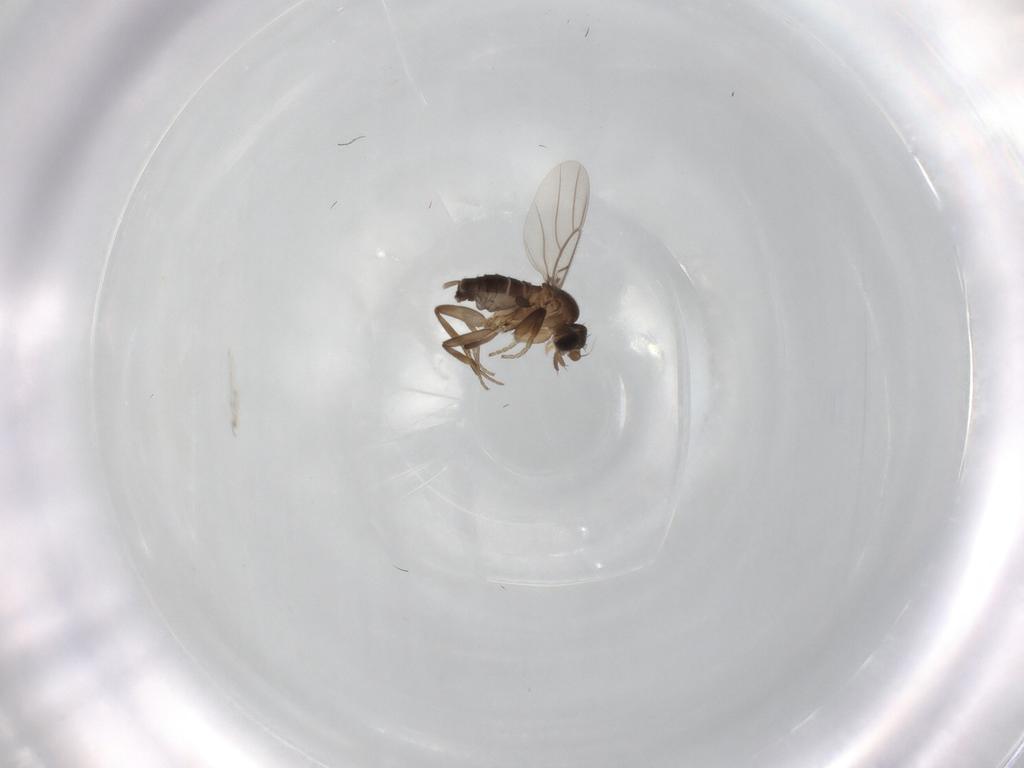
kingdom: Animalia
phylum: Arthropoda
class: Insecta
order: Diptera
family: Phoridae
